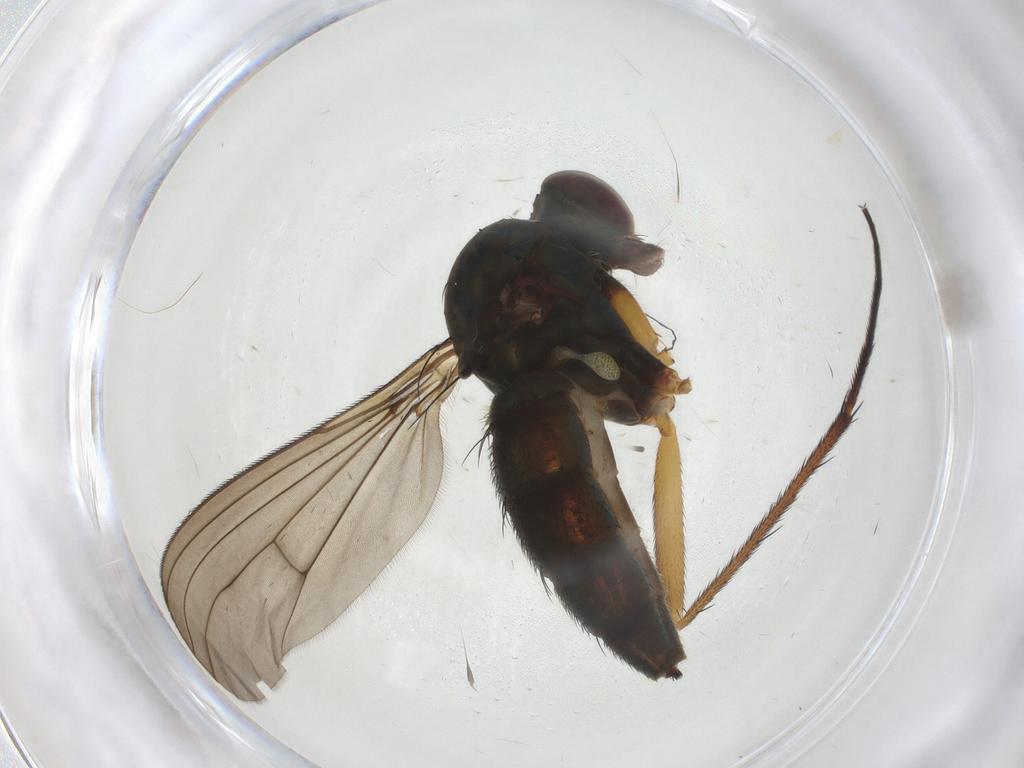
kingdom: Animalia
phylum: Arthropoda
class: Insecta
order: Diptera
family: Dolichopodidae
